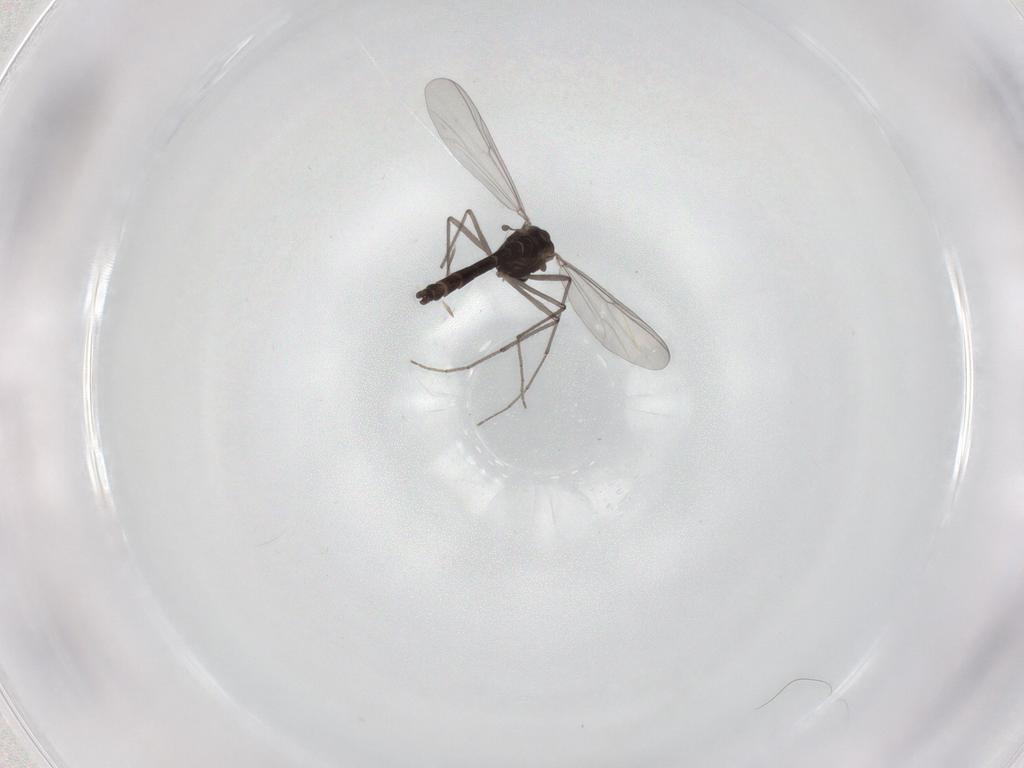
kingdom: Animalia
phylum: Arthropoda
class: Insecta
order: Diptera
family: Chironomidae
